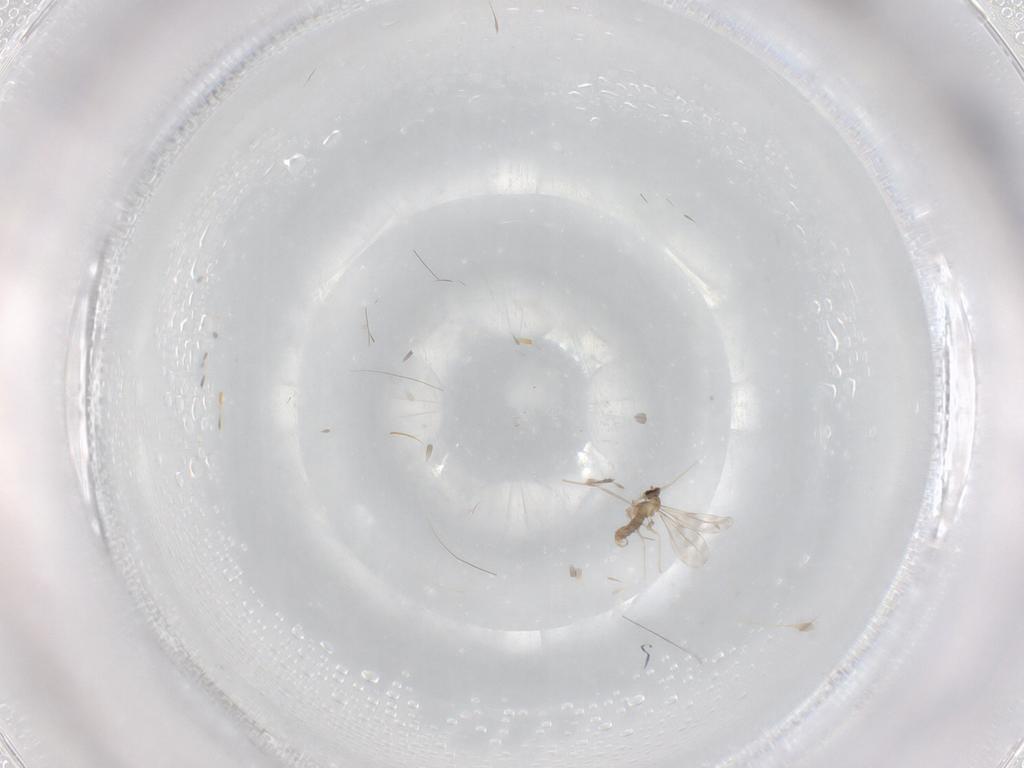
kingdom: Animalia
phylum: Arthropoda
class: Insecta
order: Diptera
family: Cecidomyiidae
